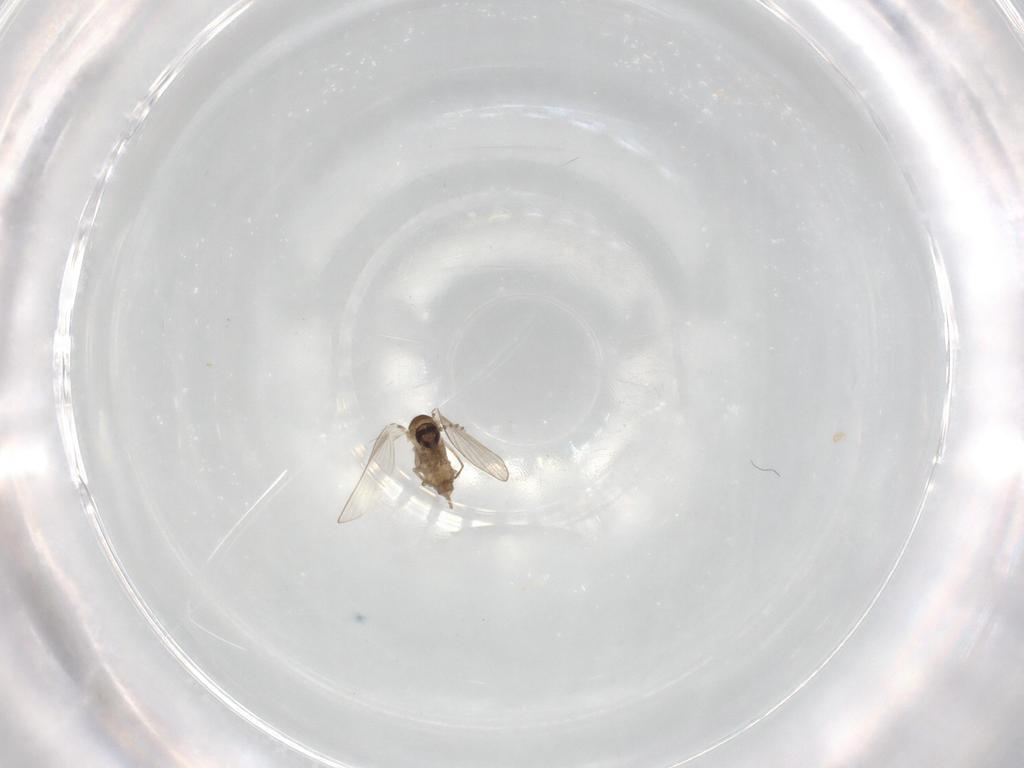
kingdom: Animalia
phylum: Arthropoda
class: Insecta
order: Diptera
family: Psychodidae
